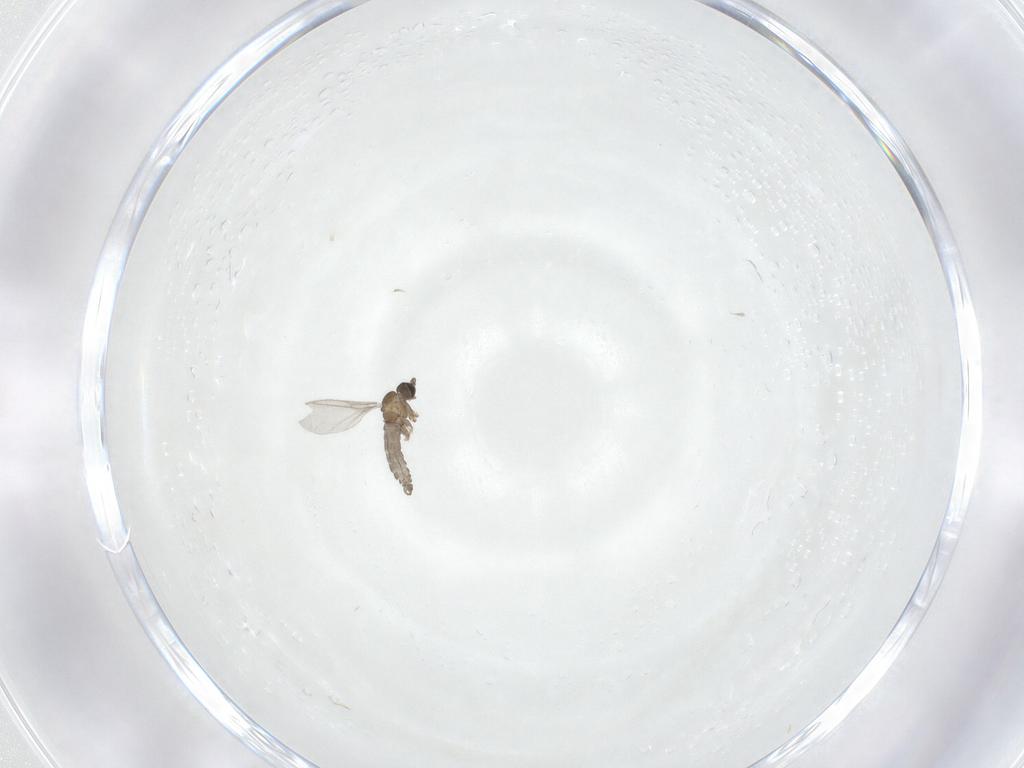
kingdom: Animalia
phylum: Arthropoda
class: Insecta
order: Diptera
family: Sciaridae
